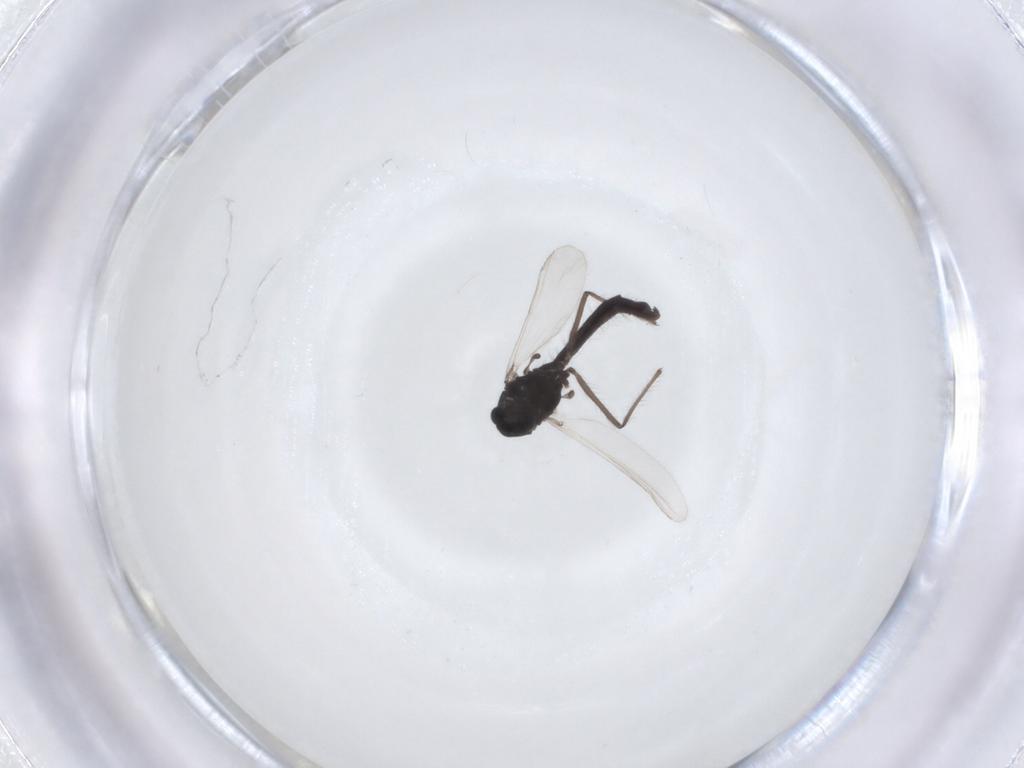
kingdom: Animalia
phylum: Arthropoda
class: Insecta
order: Diptera
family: Chironomidae
